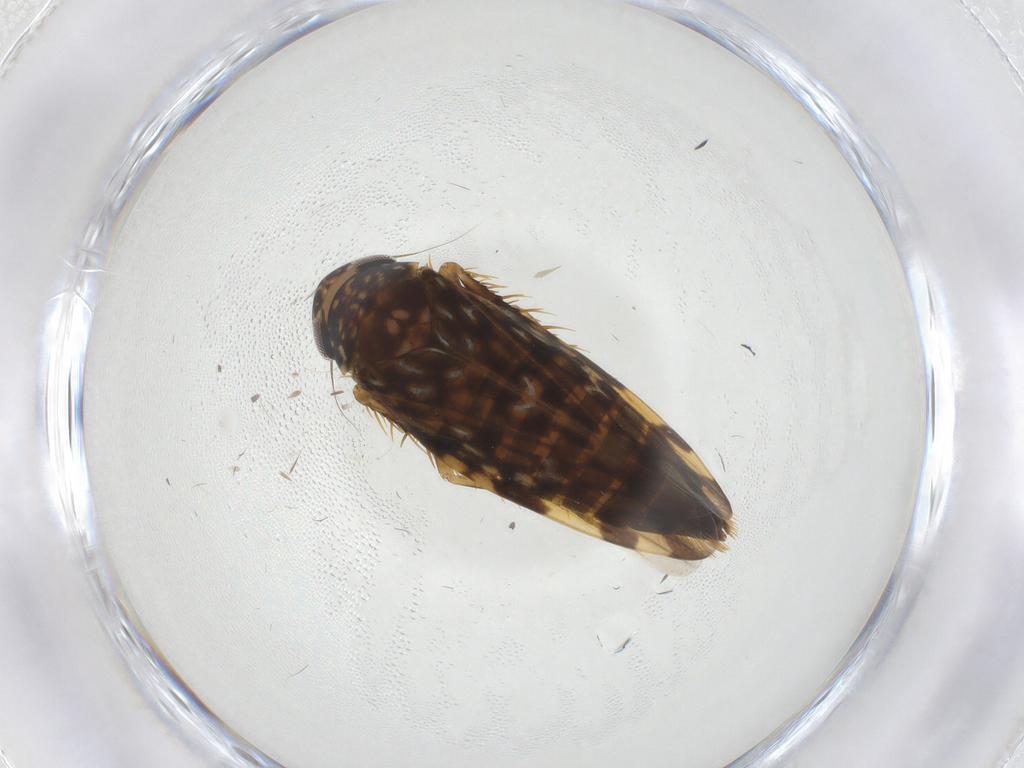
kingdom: Animalia
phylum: Arthropoda
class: Insecta
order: Hemiptera
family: Cicadellidae
